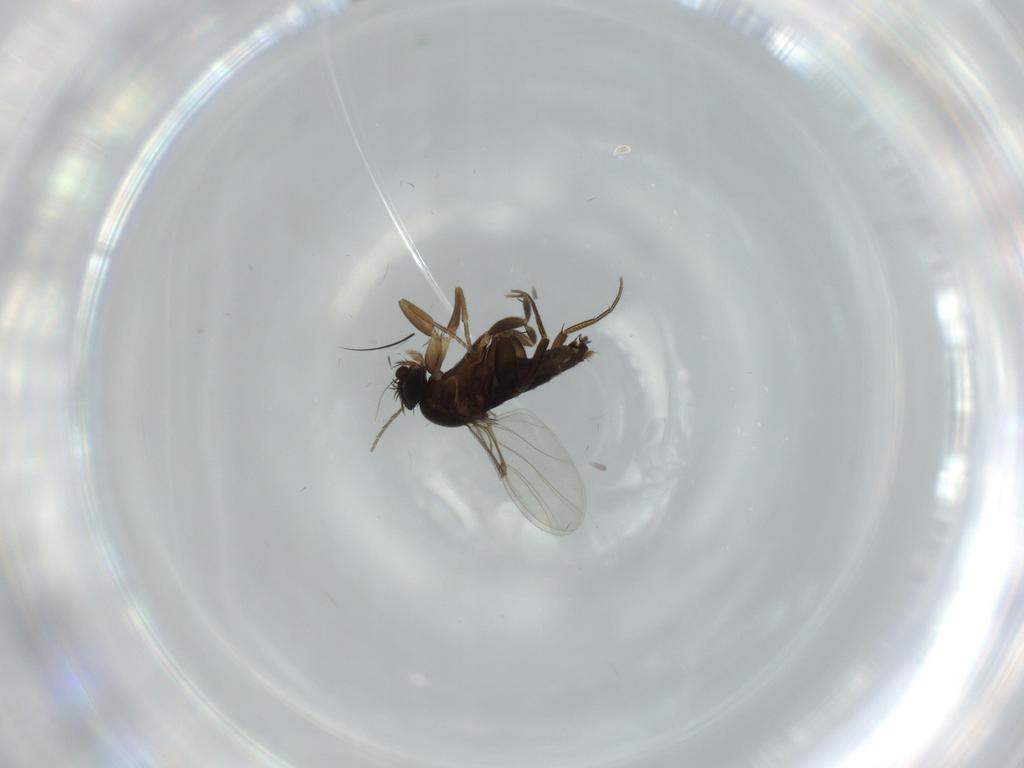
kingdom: Animalia
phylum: Arthropoda
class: Insecta
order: Diptera
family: Phoridae
